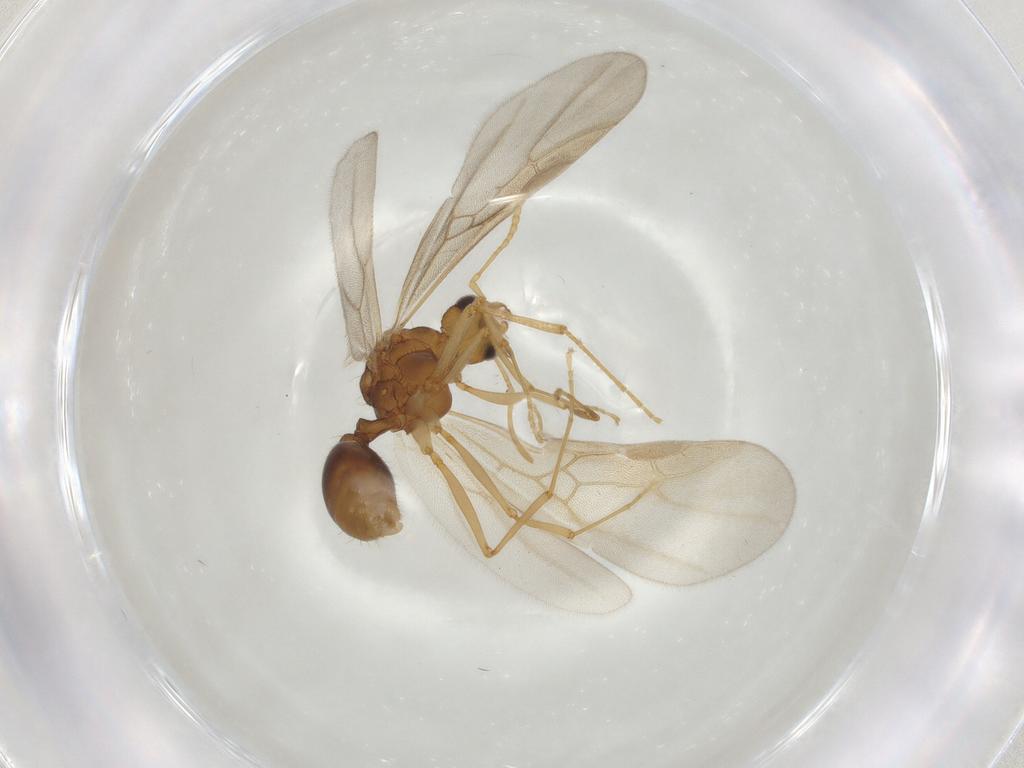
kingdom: Animalia
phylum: Arthropoda
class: Insecta
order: Hymenoptera
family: Formicidae
